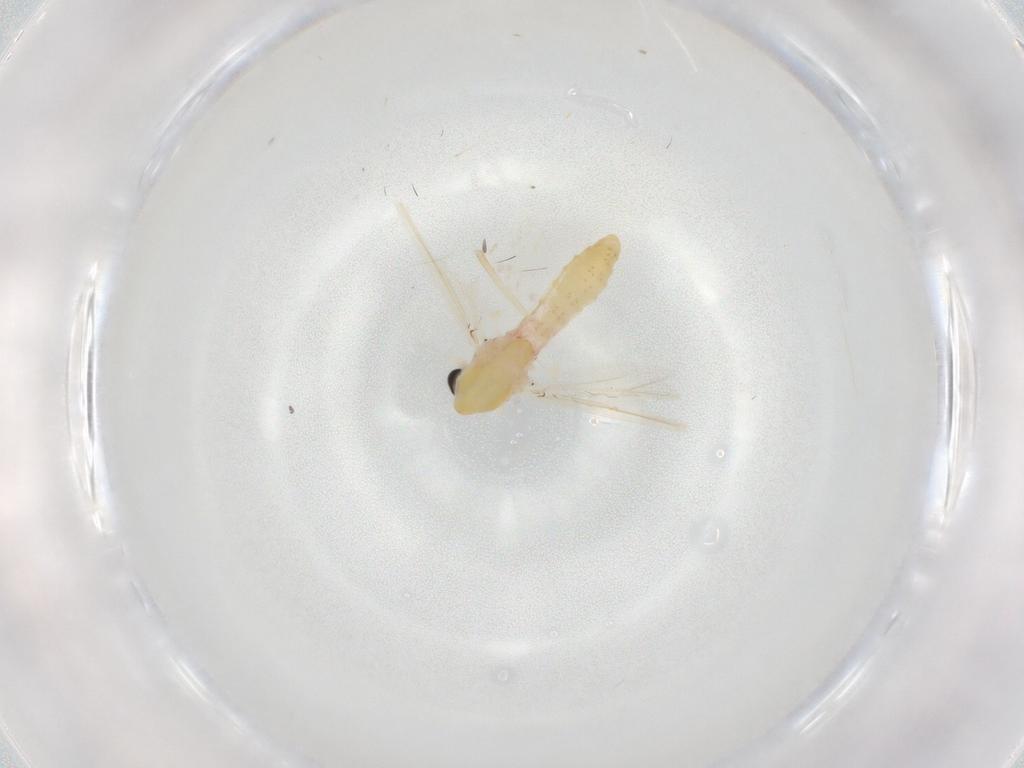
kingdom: Animalia
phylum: Arthropoda
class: Insecta
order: Diptera
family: Chironomidae
